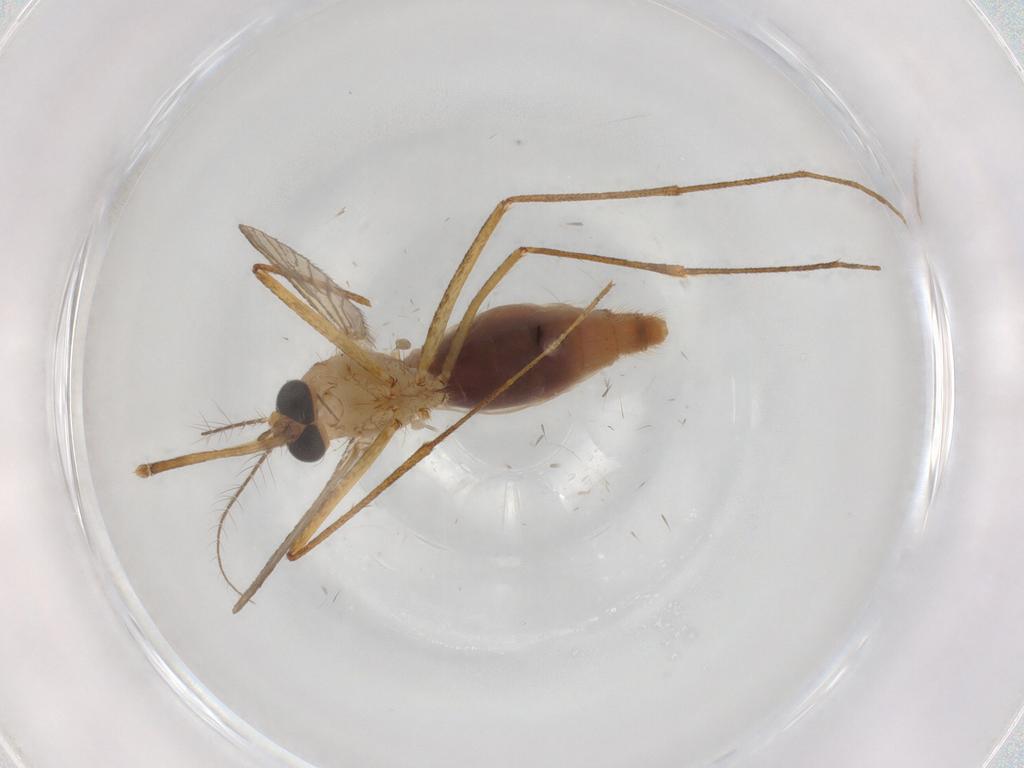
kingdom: Animalia
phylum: Arthropoda
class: Insecta
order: Diptera
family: Culicidae
